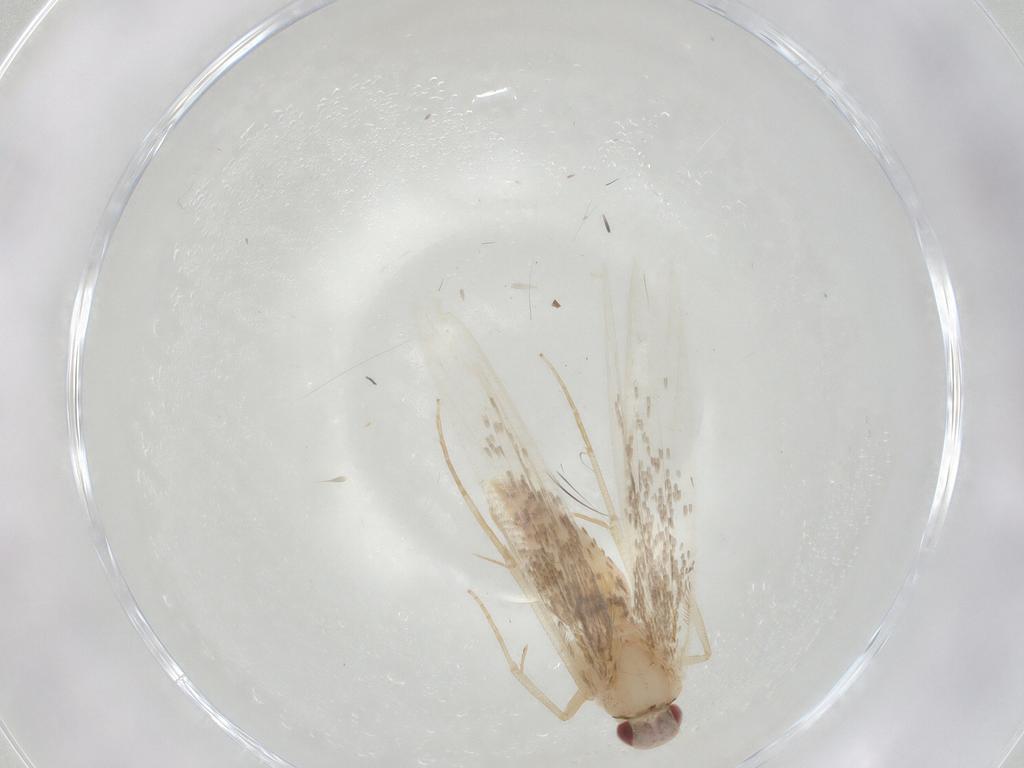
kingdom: Animalia
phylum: Arthropoda
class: Insecta
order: Lepidoptera
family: Cosmopterigidae
